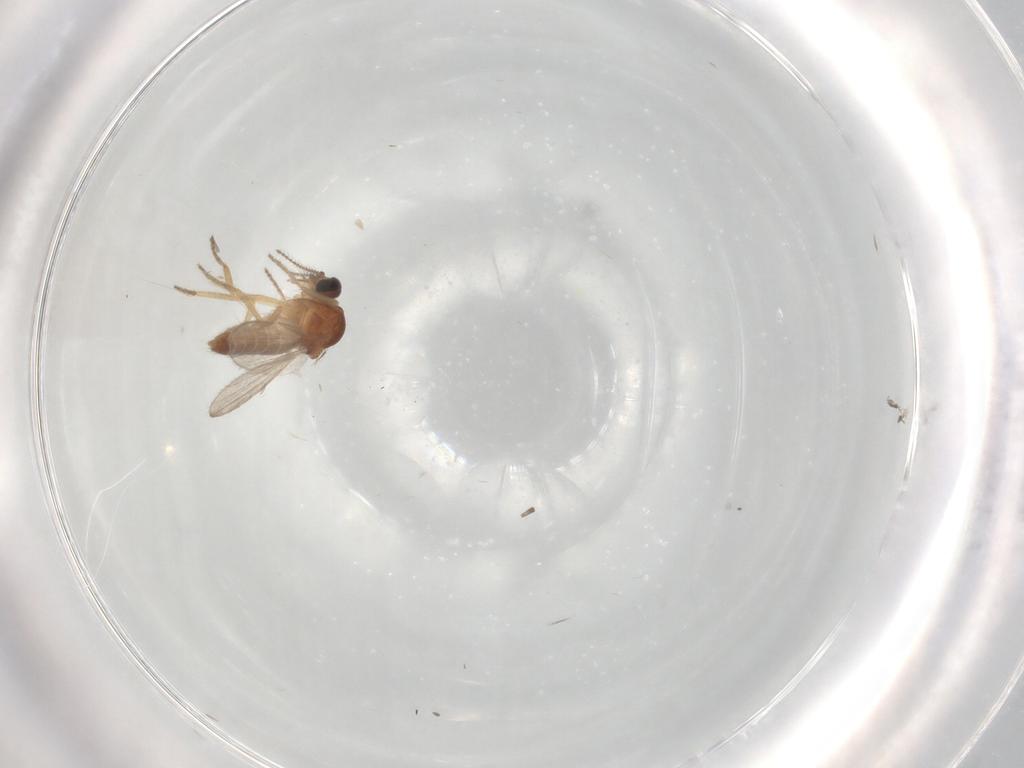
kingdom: Animalia
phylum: Arthropoda
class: Insecta
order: Diptera
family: Ceratopogonidae
